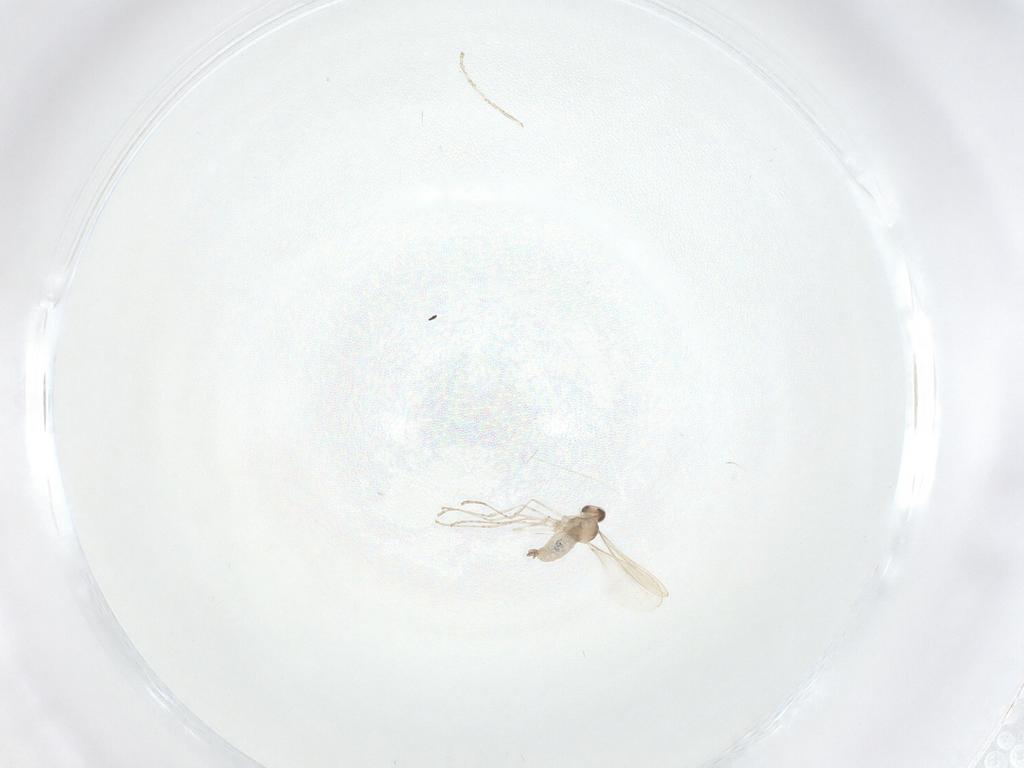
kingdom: Animalia
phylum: Arthropoda
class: Insecta
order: Diptera
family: Cecidomyiidae
